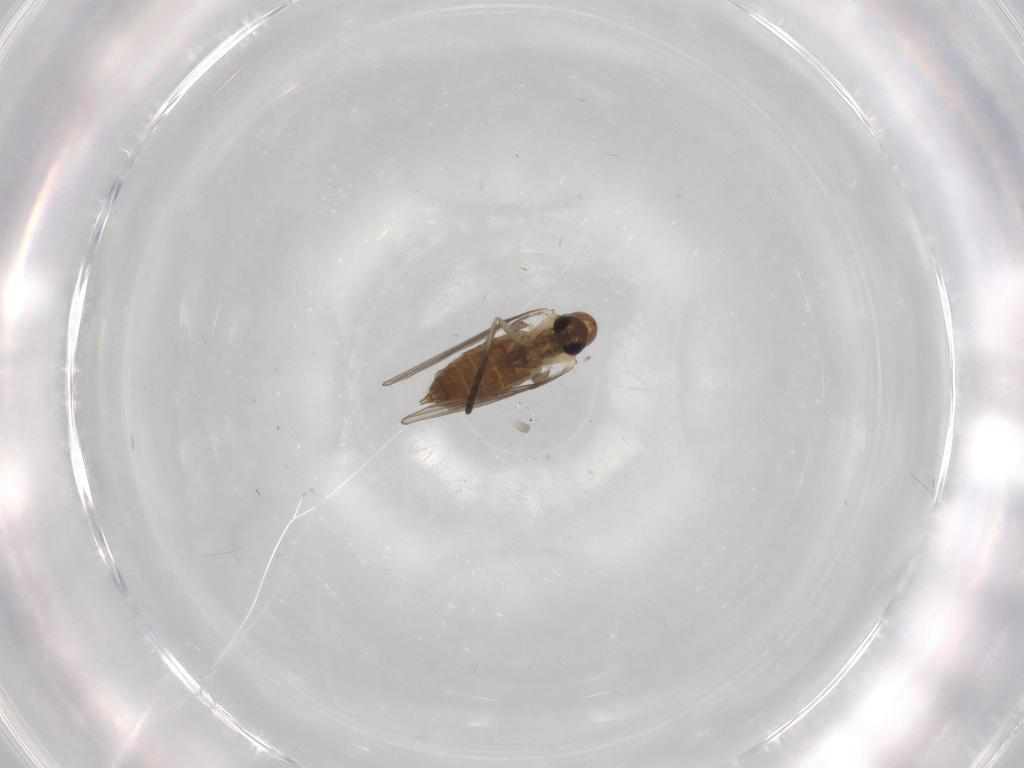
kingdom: Animalia
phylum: Arthropoda
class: Insecta
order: Diptera
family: Psychodidae
